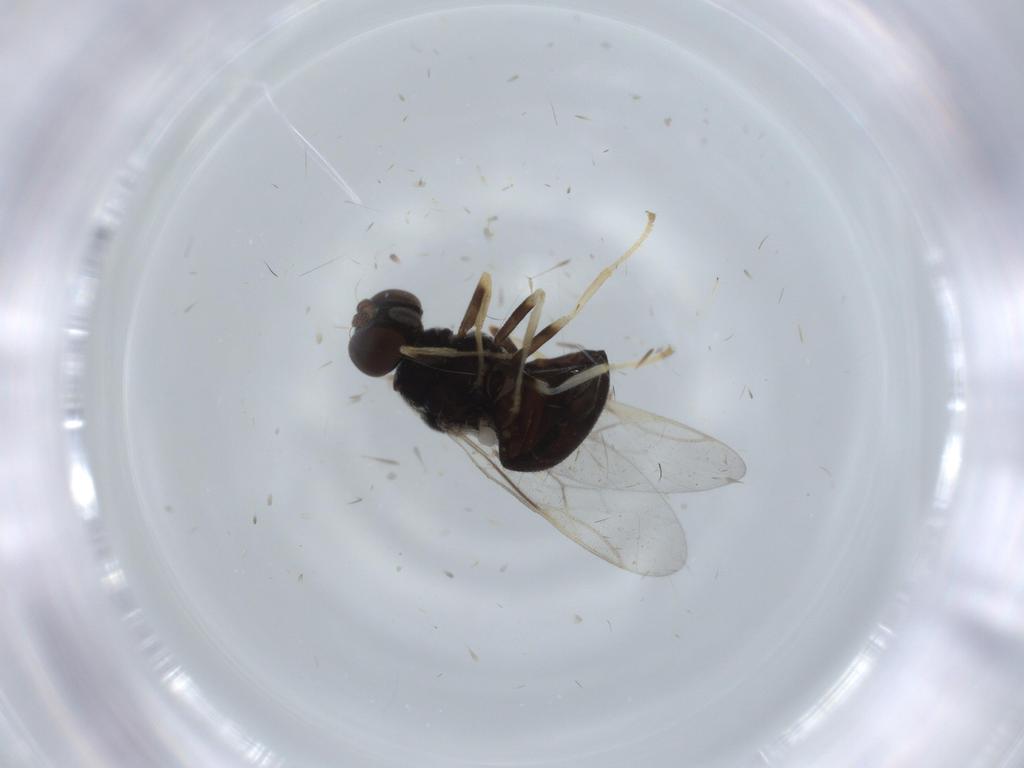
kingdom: Animalia
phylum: Arthropoda
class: Insecta
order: Diptera
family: Stratiomyidae
